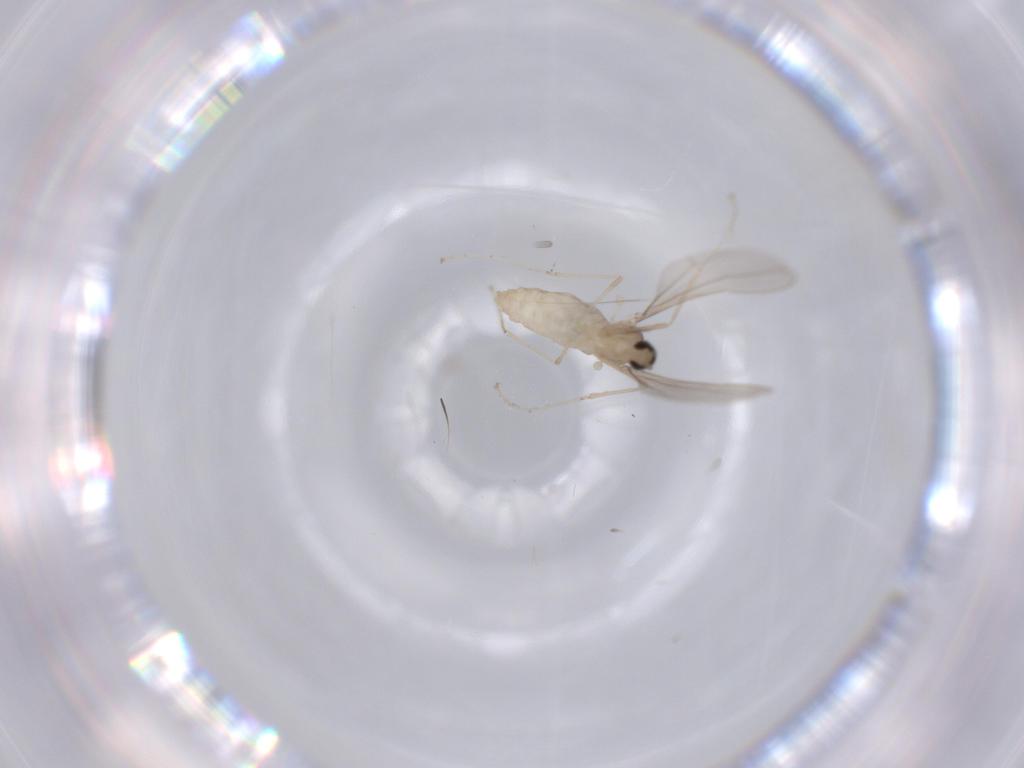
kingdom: Animalia
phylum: Arthropoda
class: Insecta
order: Diptera
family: Cecidomyiidae
